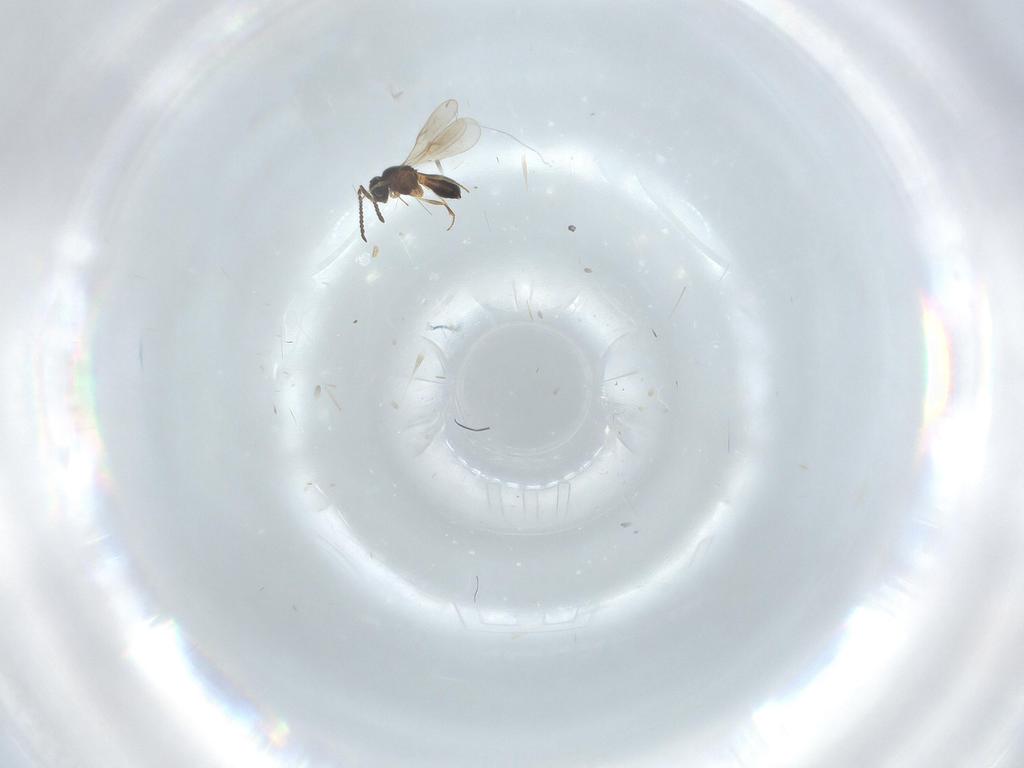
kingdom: Animalia
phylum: Arthropoda
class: Insecta
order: Hymenoptera
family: Scelionidae
